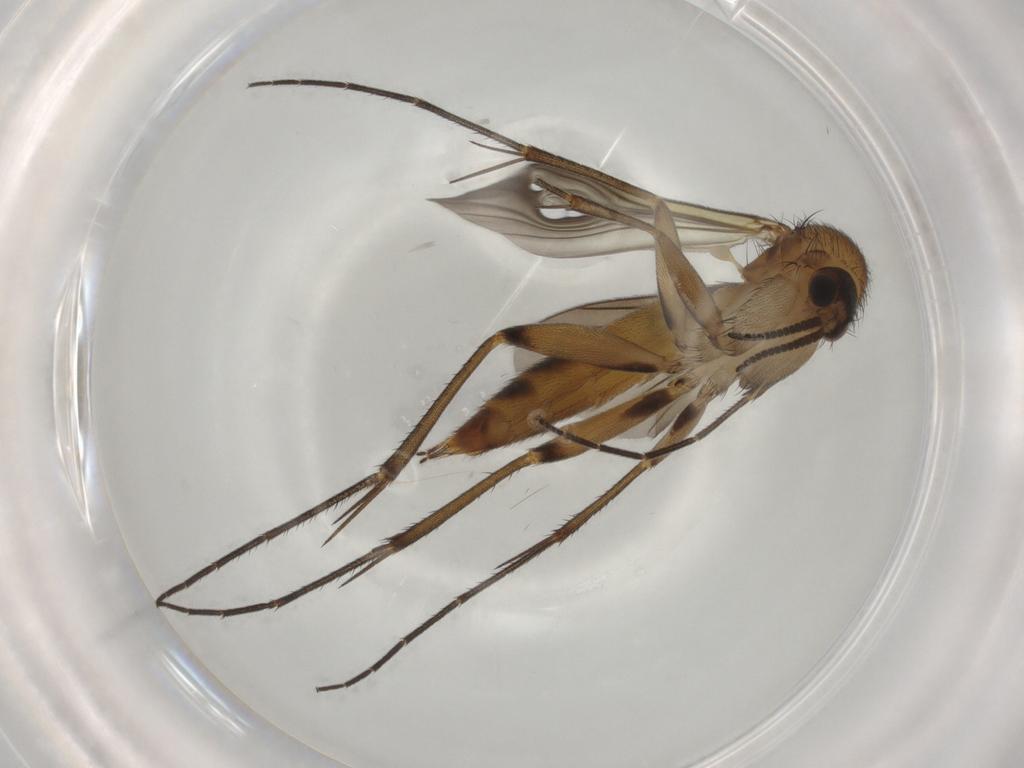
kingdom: Animalia
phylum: Arthropoda
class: Insecta
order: Diptera
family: Mycetophilidae
